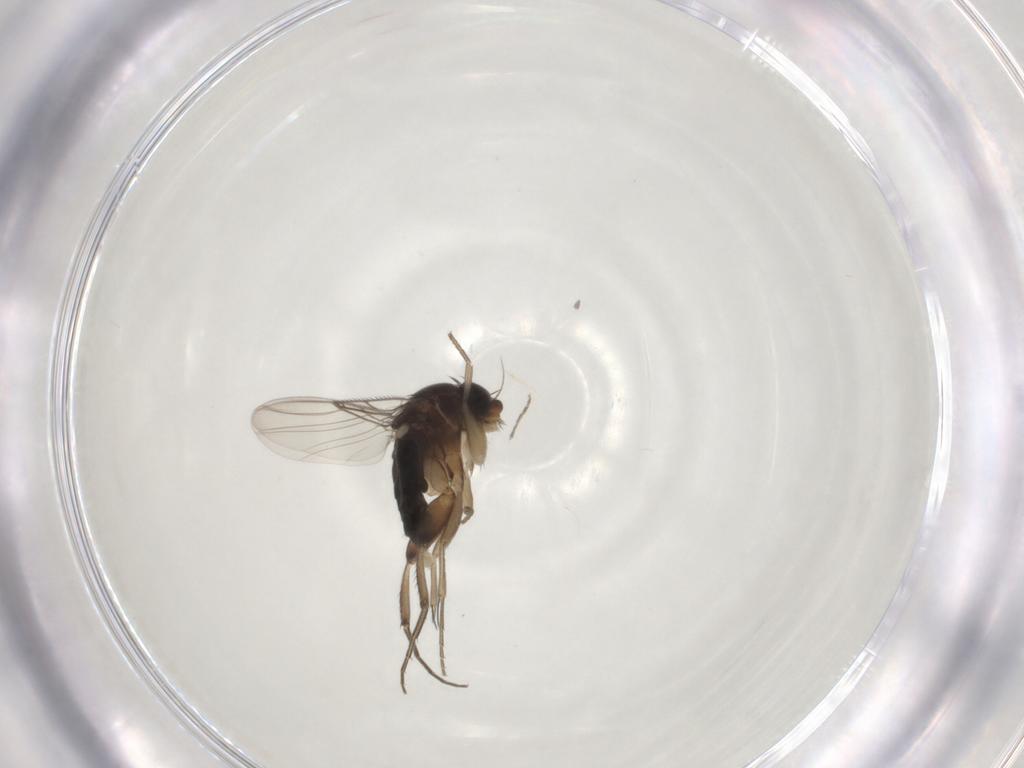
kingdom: Animalia
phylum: Arthropoda
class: Insecta
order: Diptera
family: Phoridae
